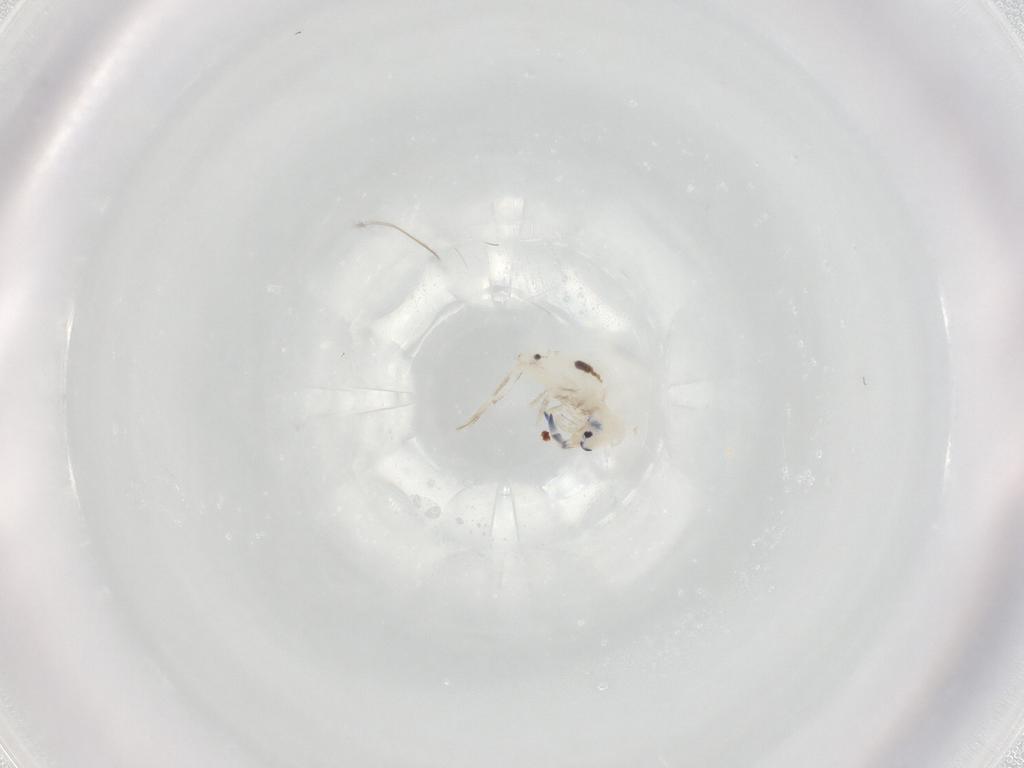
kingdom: Animalia
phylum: Arthropoda
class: Collembola
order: Entomobryomorpha
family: Entomobryidae
